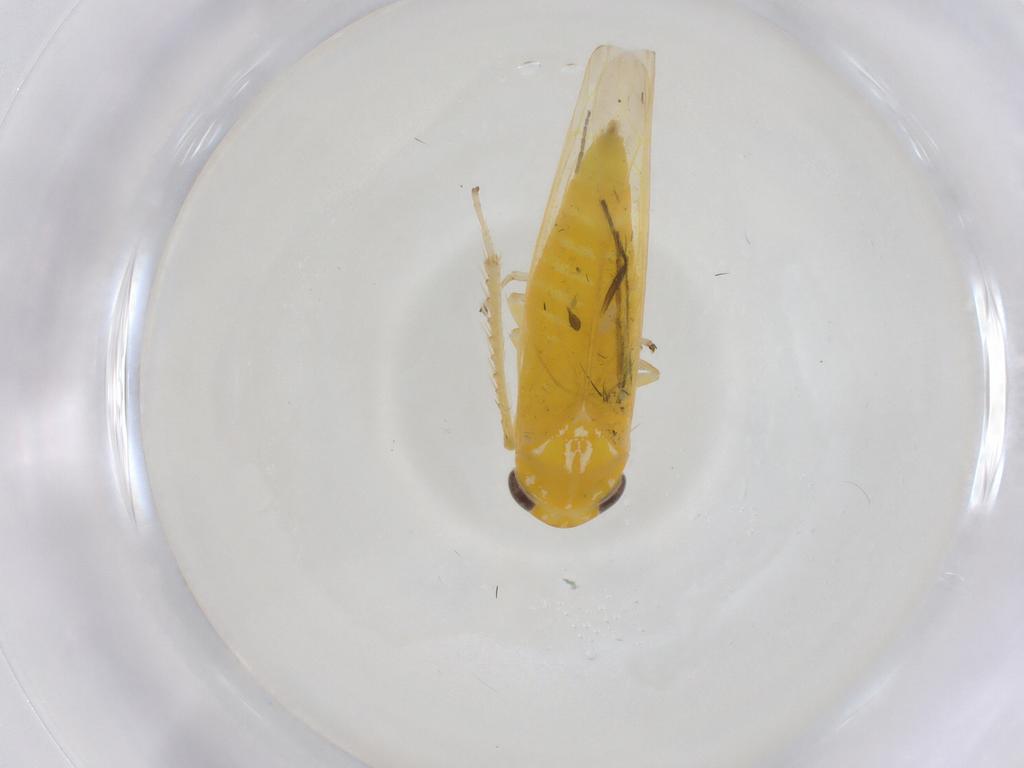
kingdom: Animalia
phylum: Arthropoda
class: Insecta
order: Hemiptera
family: Cicadellidae
